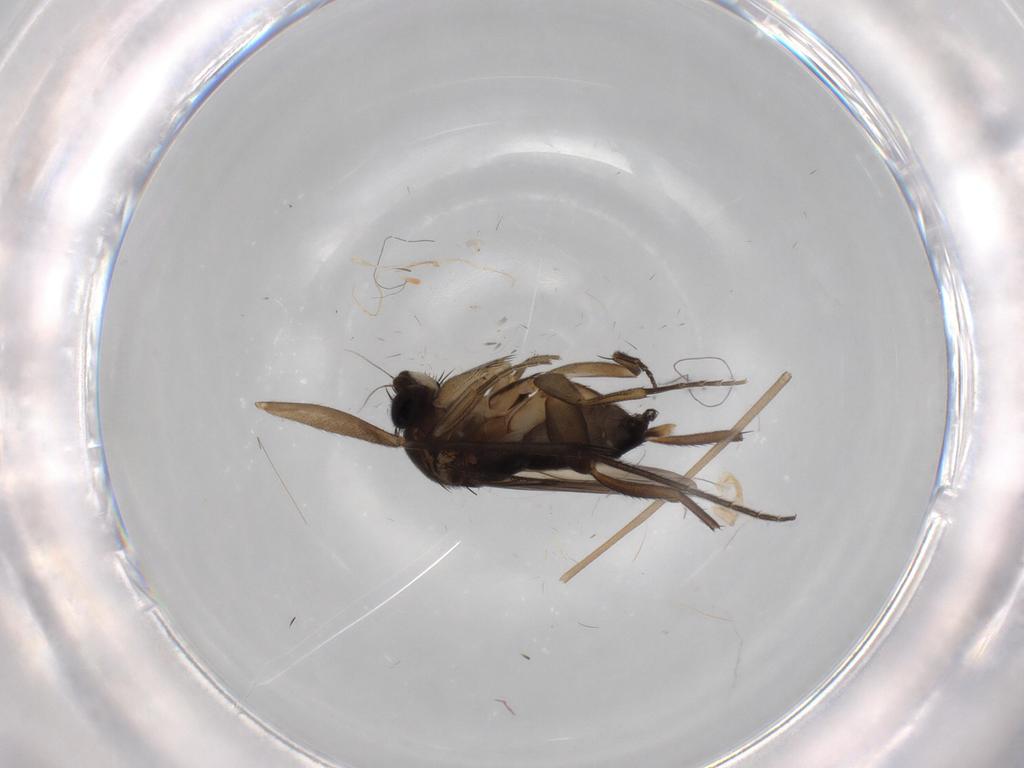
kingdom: Animalia
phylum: Arthropoda
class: Insecta
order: Diptera
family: Phoridae
